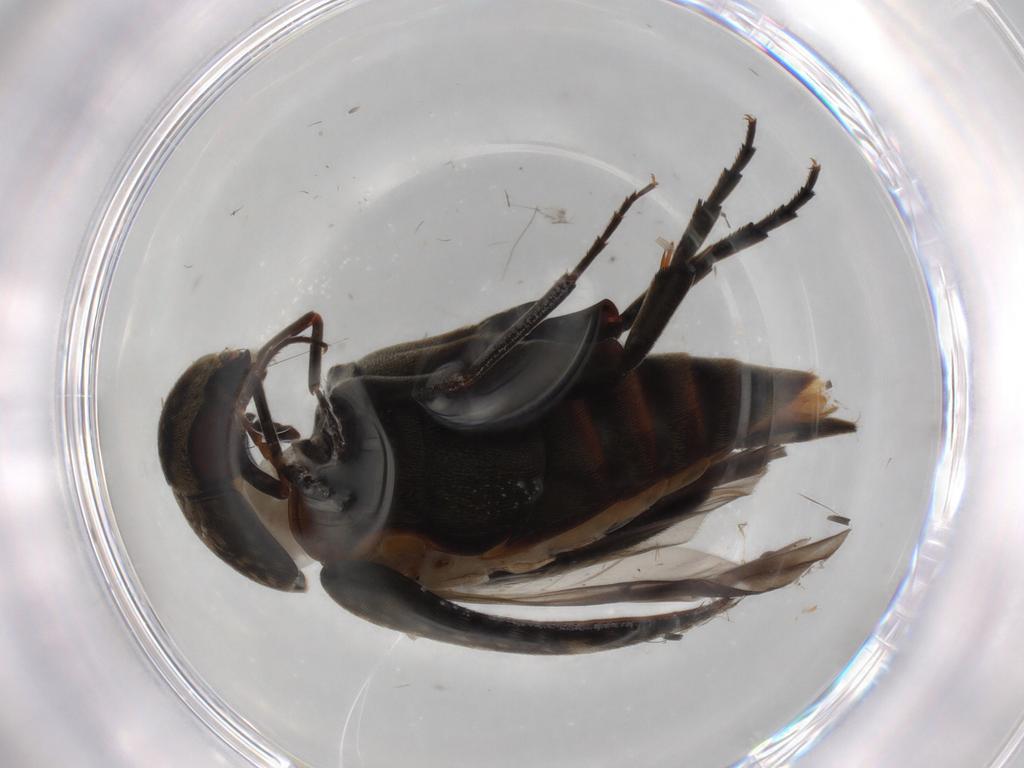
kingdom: Animalia
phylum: Arthropoda
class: Insecta
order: Coleoptera
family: Mordellidae
